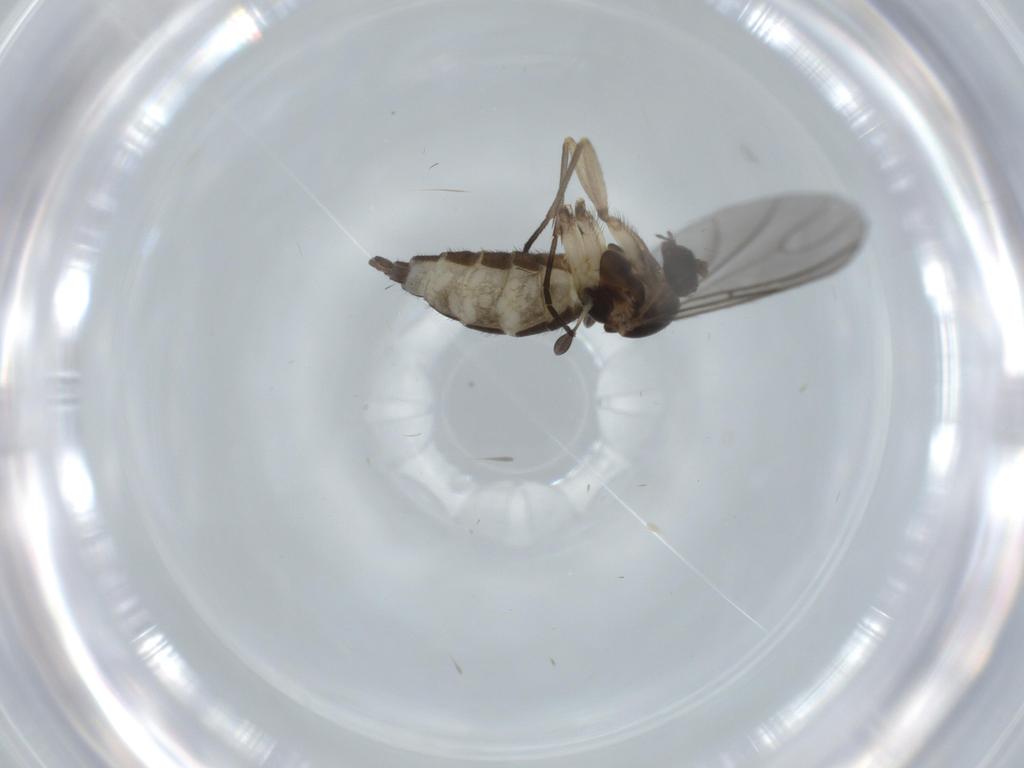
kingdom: Animalia
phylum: Arthropoda
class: Insecta
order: Diptera
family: Sciaridae
